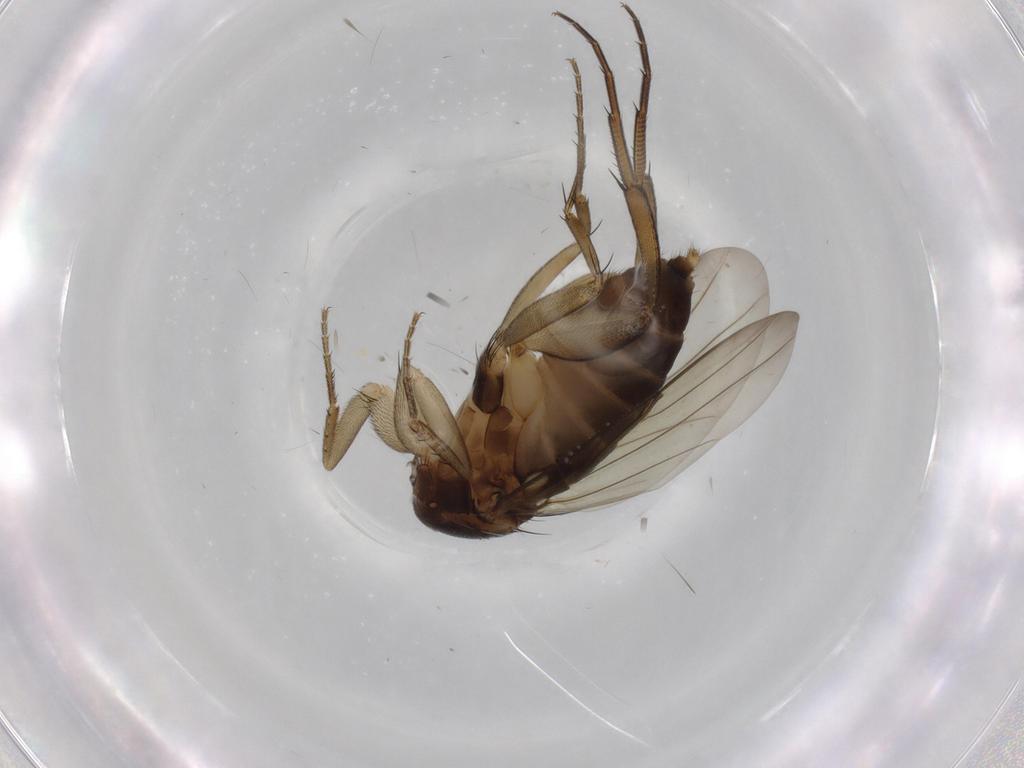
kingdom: Animalia
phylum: Arthropoda
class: Insecta
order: Diptera
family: Phoridae
